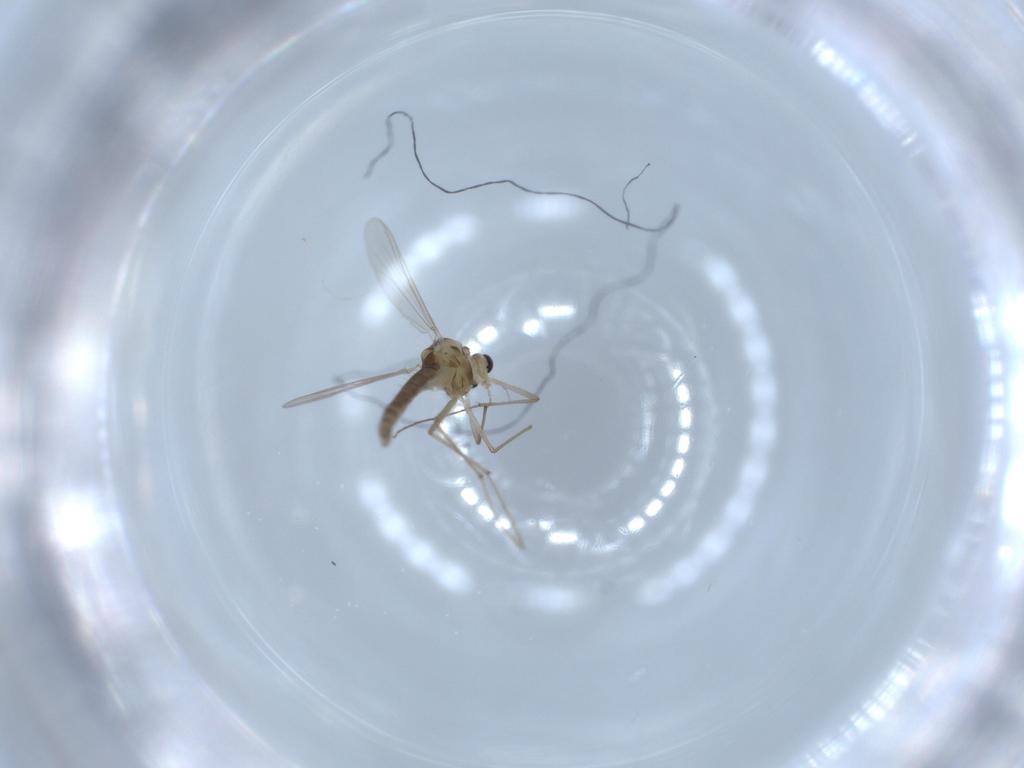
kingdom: Animalia
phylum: Arthropoda
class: Insecta
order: Diptera
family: Chironomidae
